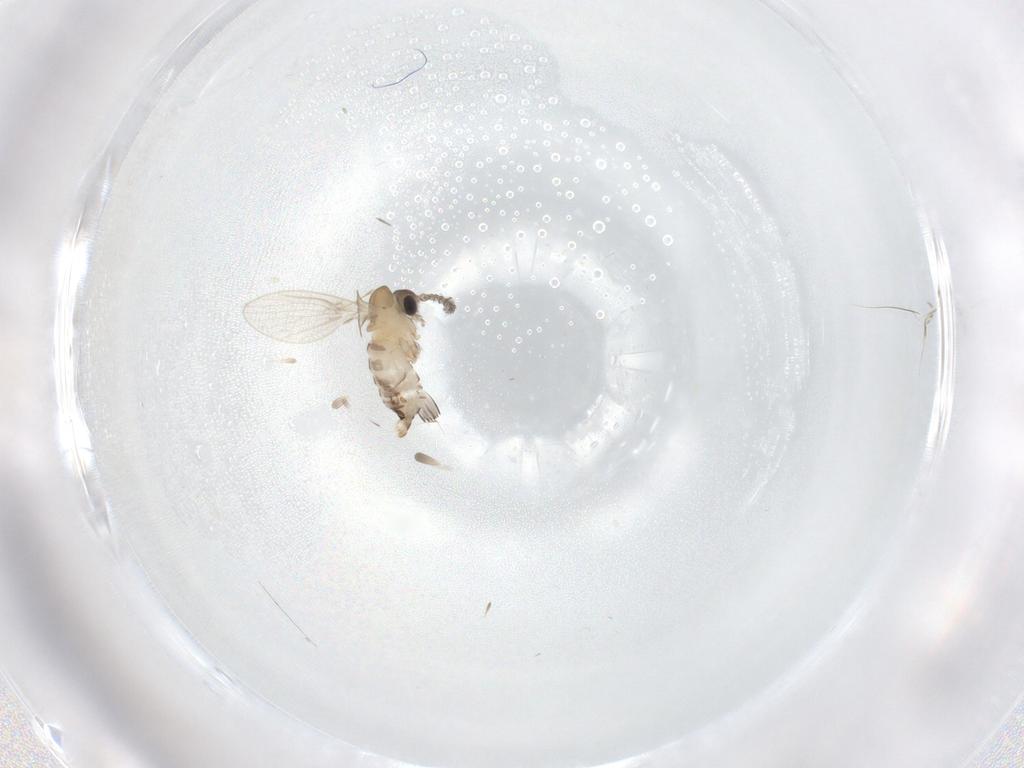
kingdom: Animalia
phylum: Arthropoda
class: Insecta
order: Diptera
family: Psychodidae
